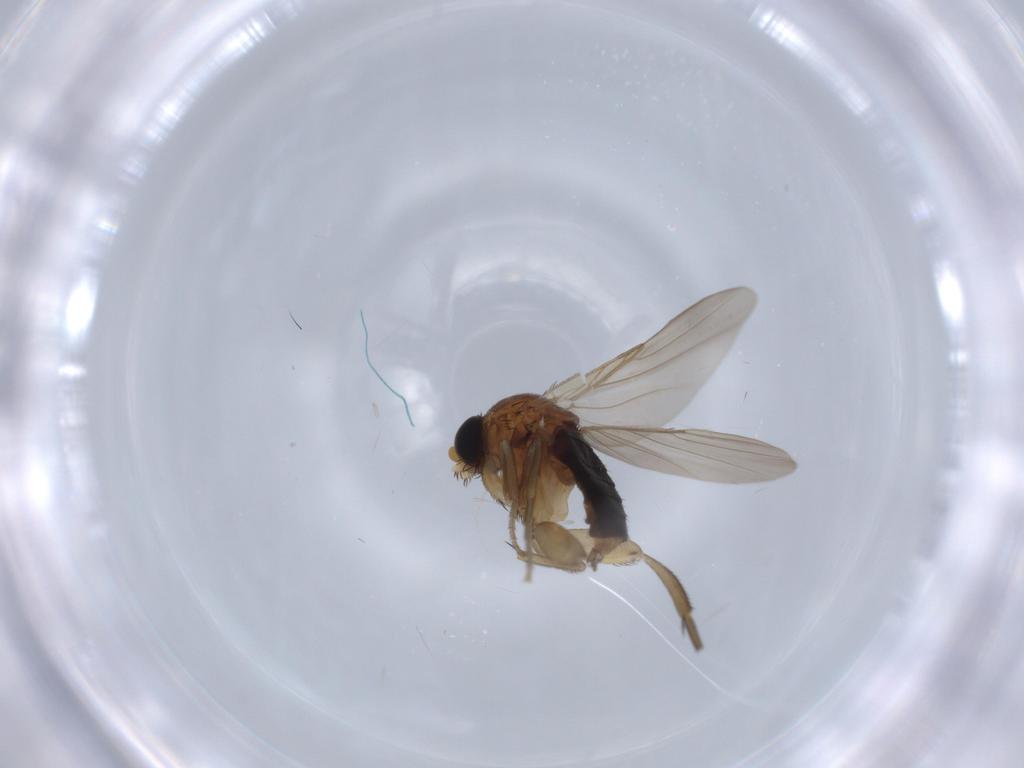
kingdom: Animalia
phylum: Arthropoda
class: Insecta
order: Diptera
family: Phoridae
